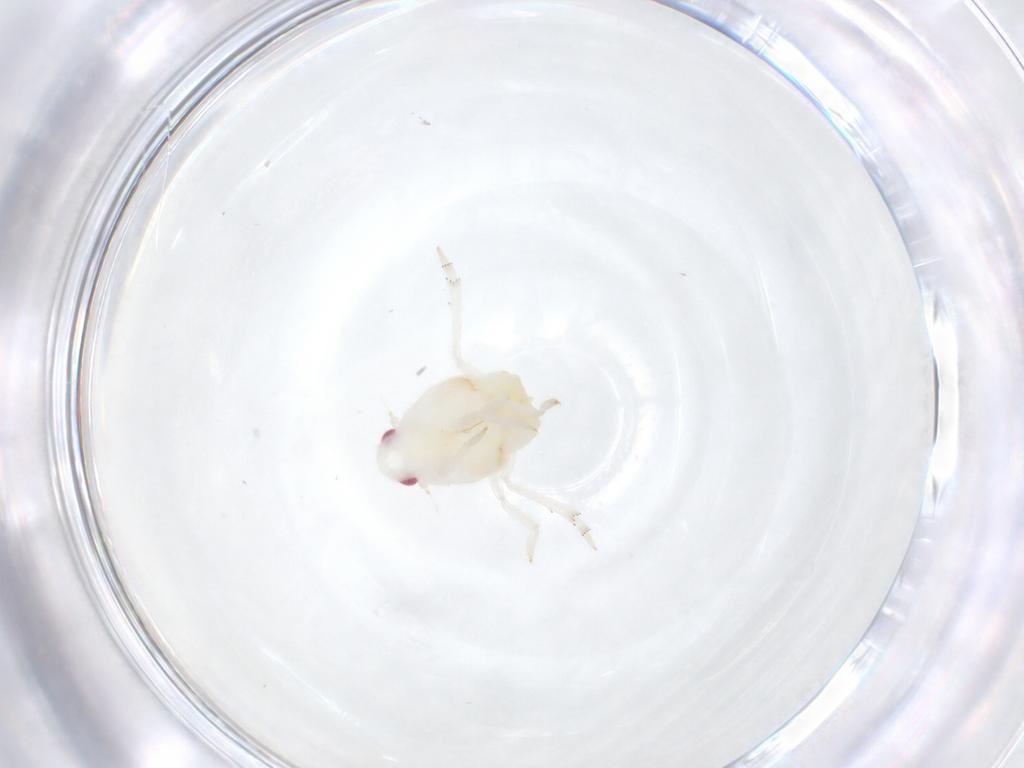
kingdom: Animalia
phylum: Arthropoda
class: Insecta
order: Hemiptera
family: Flatidae
